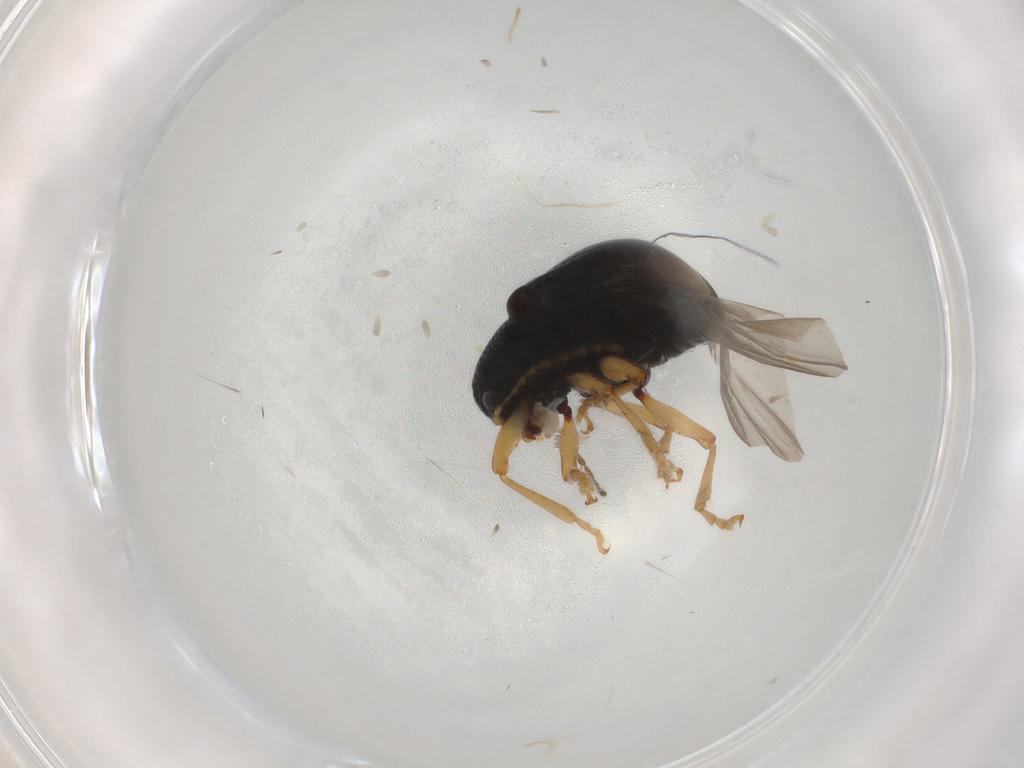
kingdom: Animalia
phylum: Arthropoda
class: Insecta
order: Coleoptera
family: Chrysomelidae
